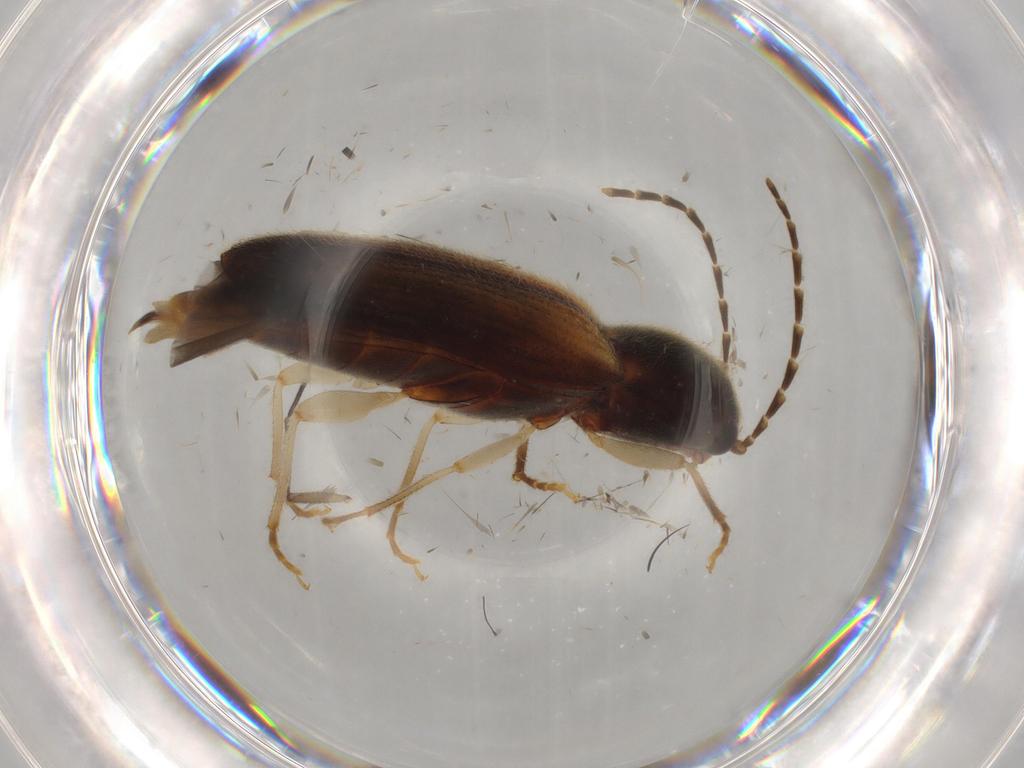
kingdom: Animalia
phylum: Arthropoda
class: Insecta
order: Coleoptera
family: Elateridae
